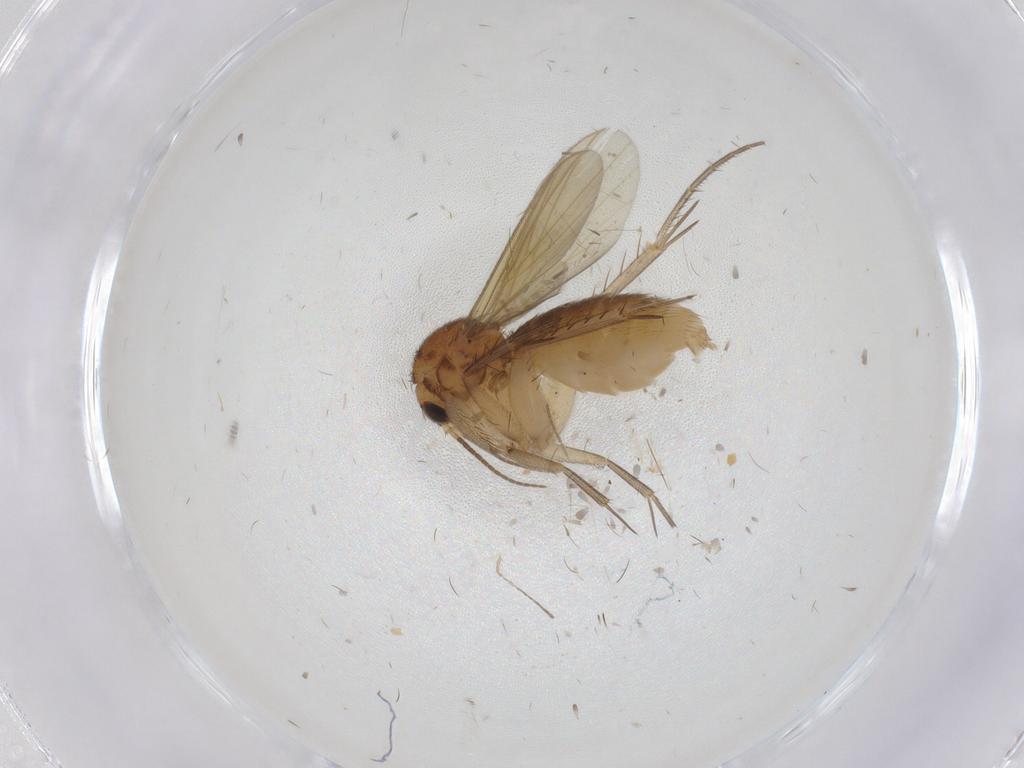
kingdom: Animalia
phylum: Arthropoda
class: Insecta
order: Diptera
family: Mycetophilidae
